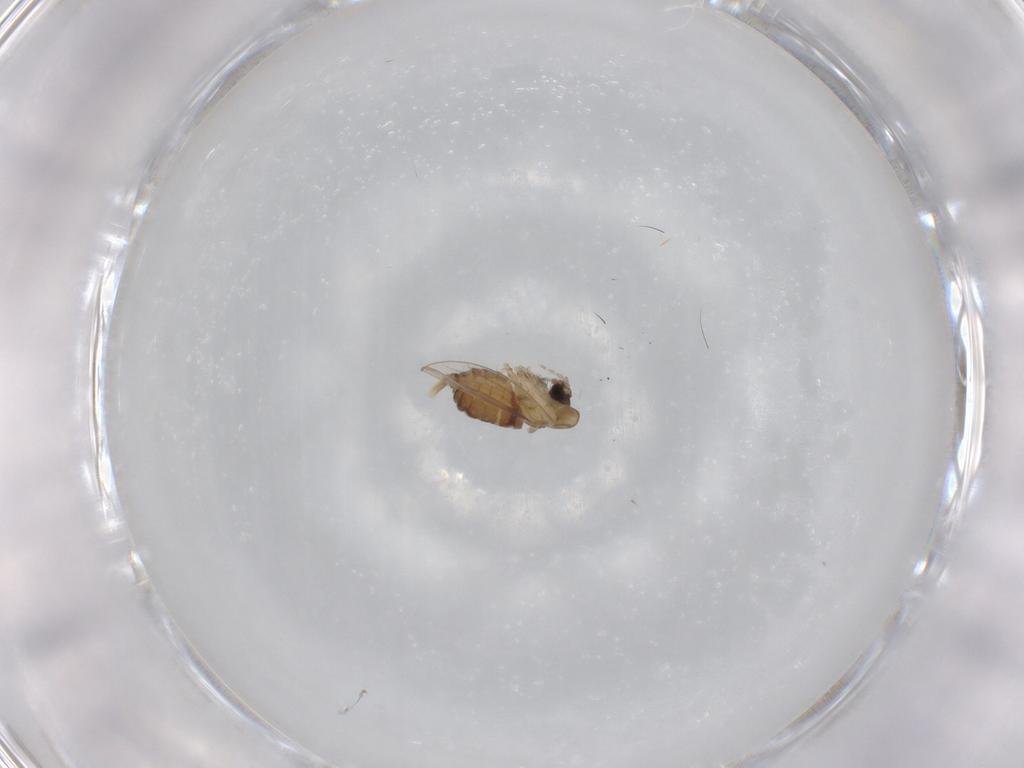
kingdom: Animalia
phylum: Arthropoda
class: Insecta
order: Diptera
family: Psychodidae
